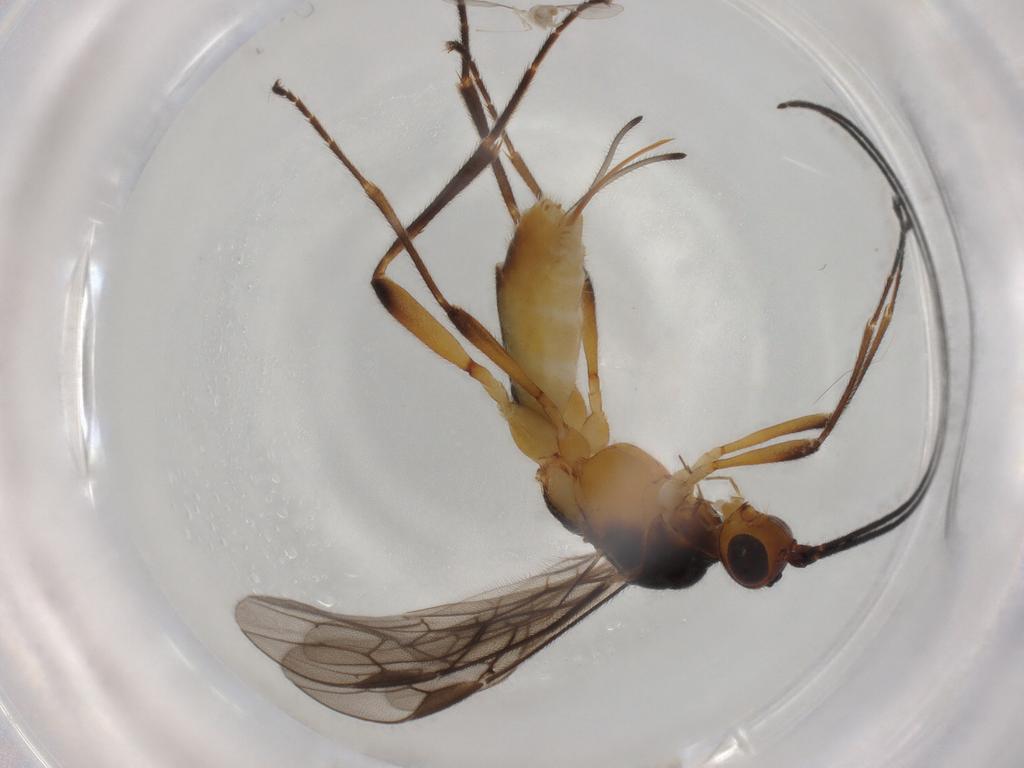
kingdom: Animalia
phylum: Arthropoda
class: Insecta
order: Hymenoptera
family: Braconidae
